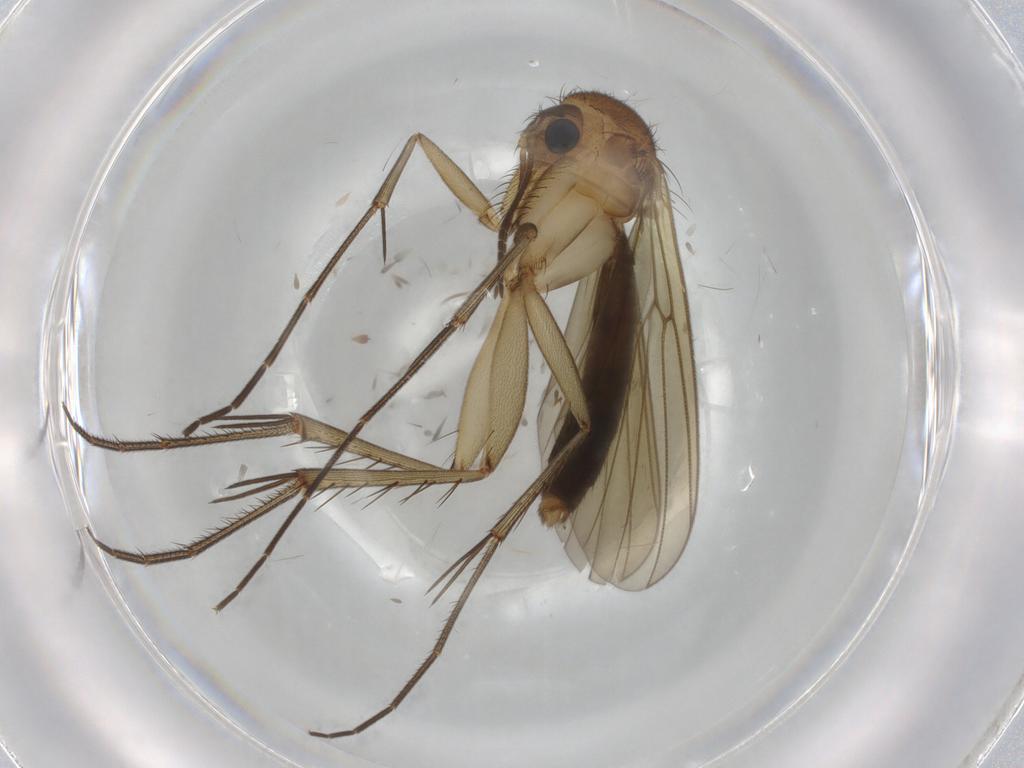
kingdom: Animalia
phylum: Arthropoda
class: Insecta
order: Diptera
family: Mycetophilidae
